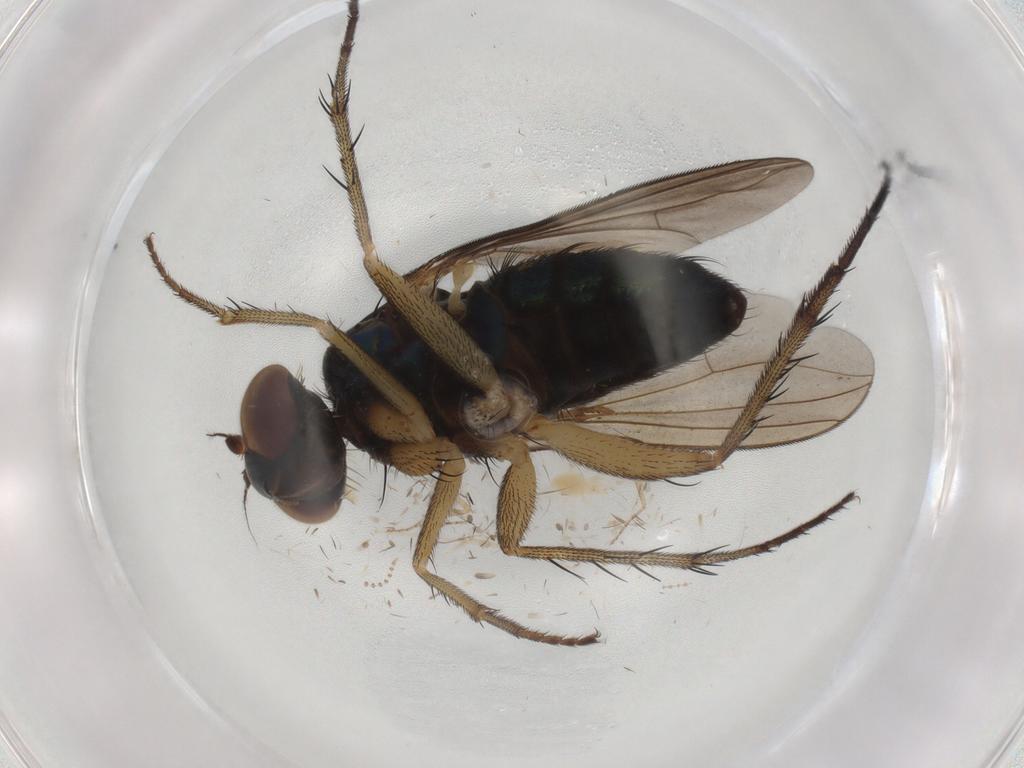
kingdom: Animalia
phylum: Arthropoda
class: Insecta
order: Diptera
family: Dolichopodidae
